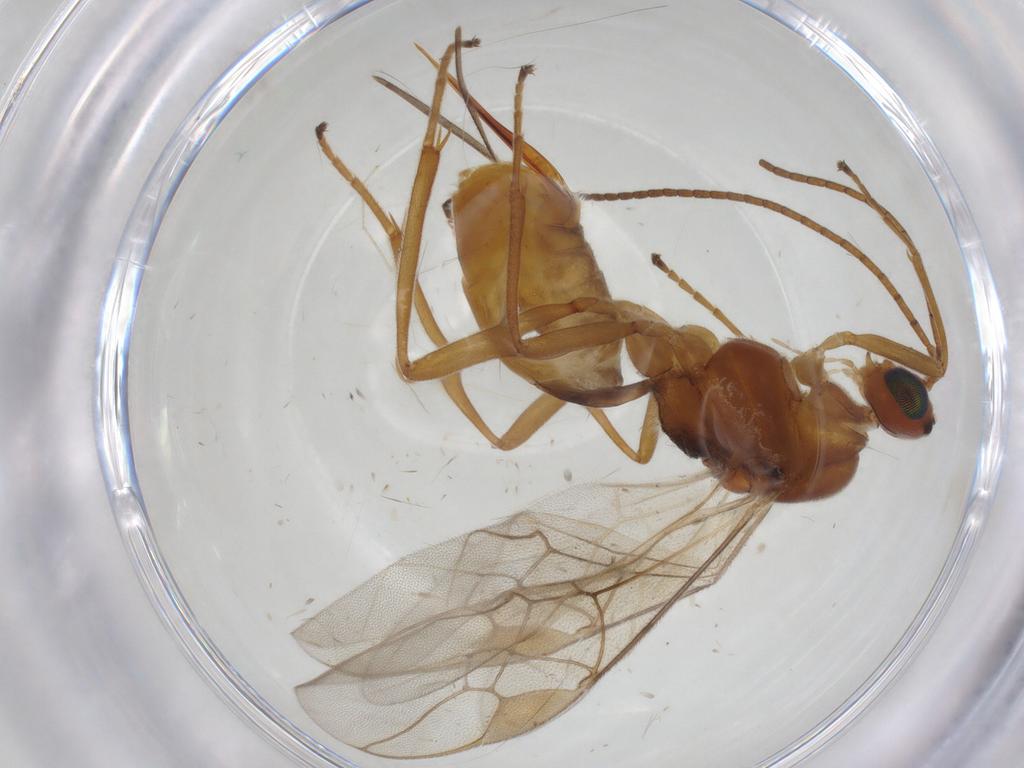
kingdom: Animalia
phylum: Arthropoda
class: Insecta
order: Hymenoptera
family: Braconidae
